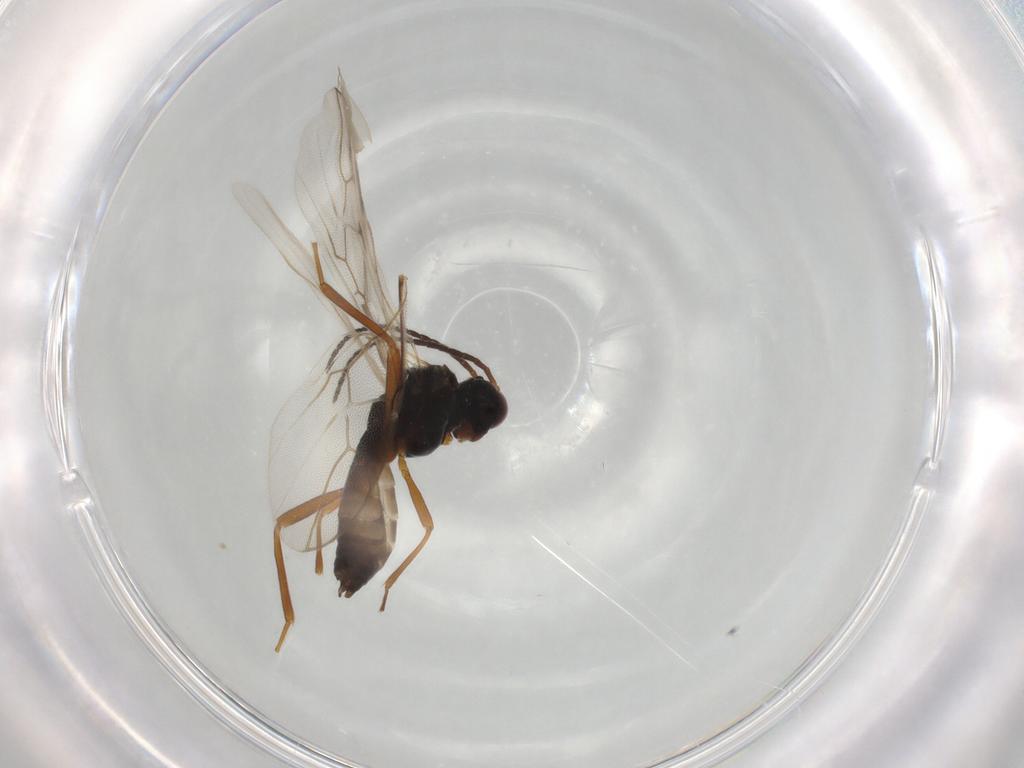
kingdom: Animalia
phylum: Arthropoda
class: Insecta
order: Hymenoptera
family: Braconidae
